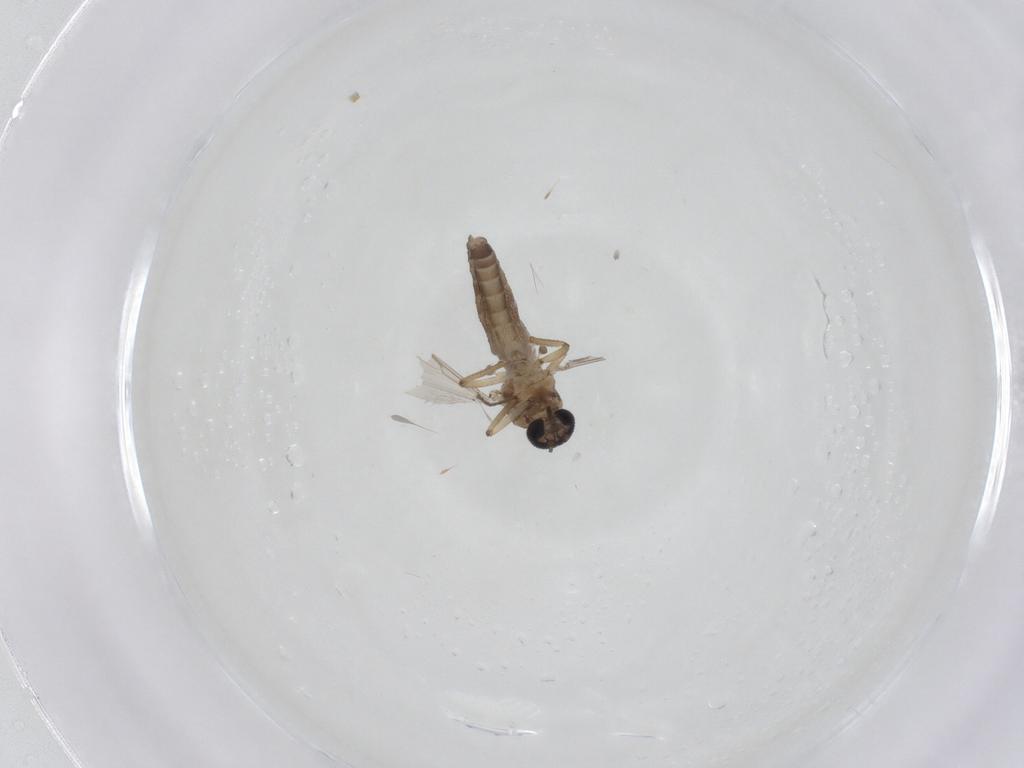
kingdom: Animalia
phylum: Arthropoda
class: Insecta
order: Diptera
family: Ceratopogonidae
